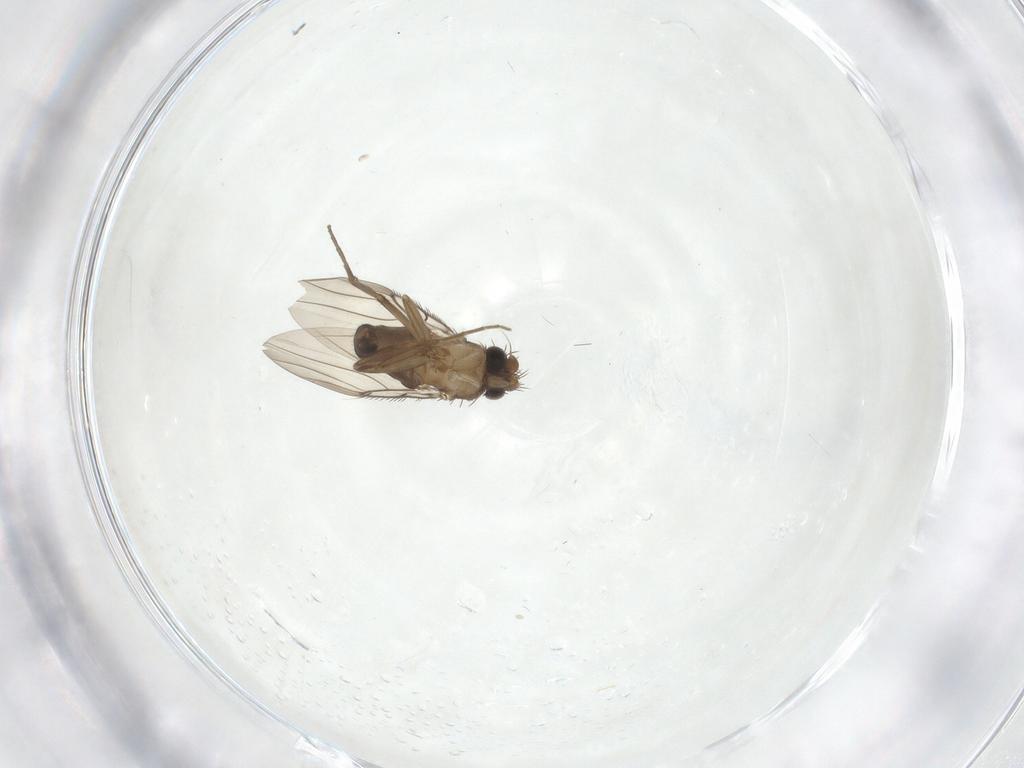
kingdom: Animalia
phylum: Arthropoda
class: Insecta
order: Diptera
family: Phoridae
